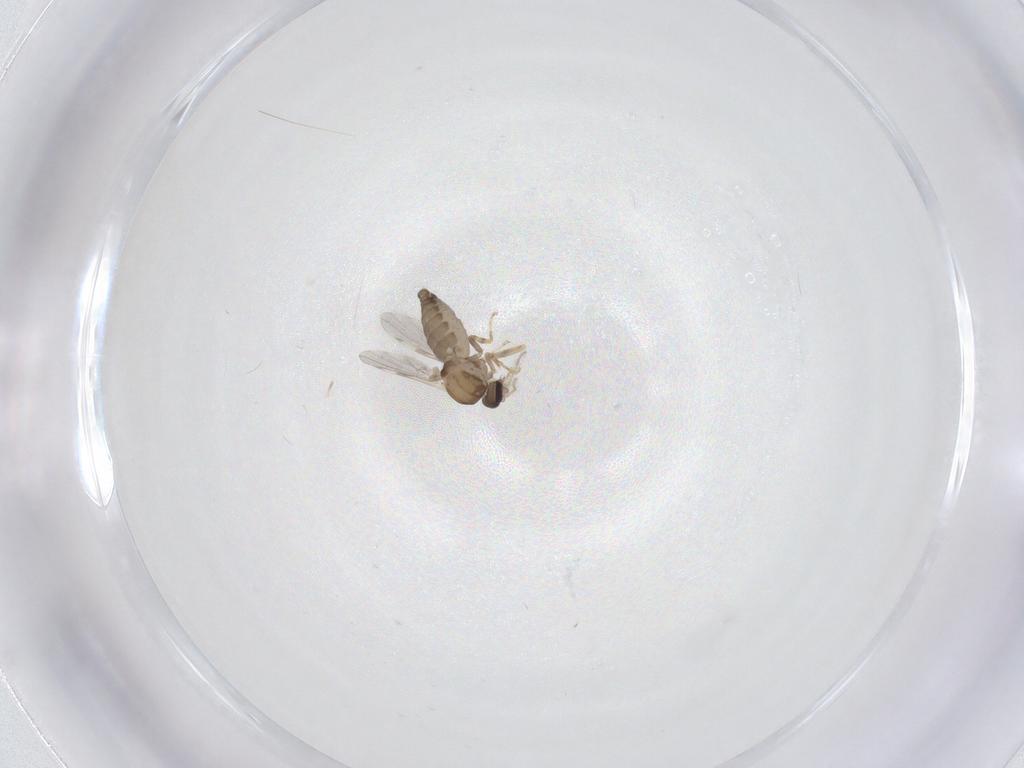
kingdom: Animalia
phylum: Arthropoda
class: Insecta
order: Diptera
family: Ceratopogonidae
